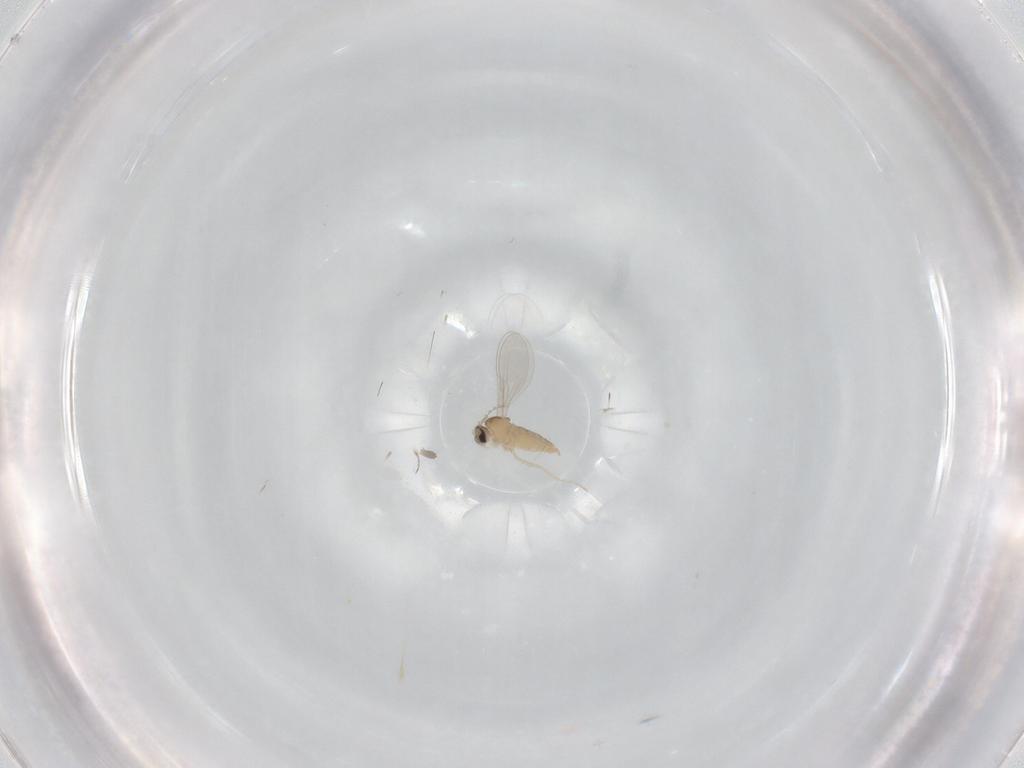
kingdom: Animalia
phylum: Arthropoda
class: Insecta
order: Diptera
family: Cecidomyiidae
